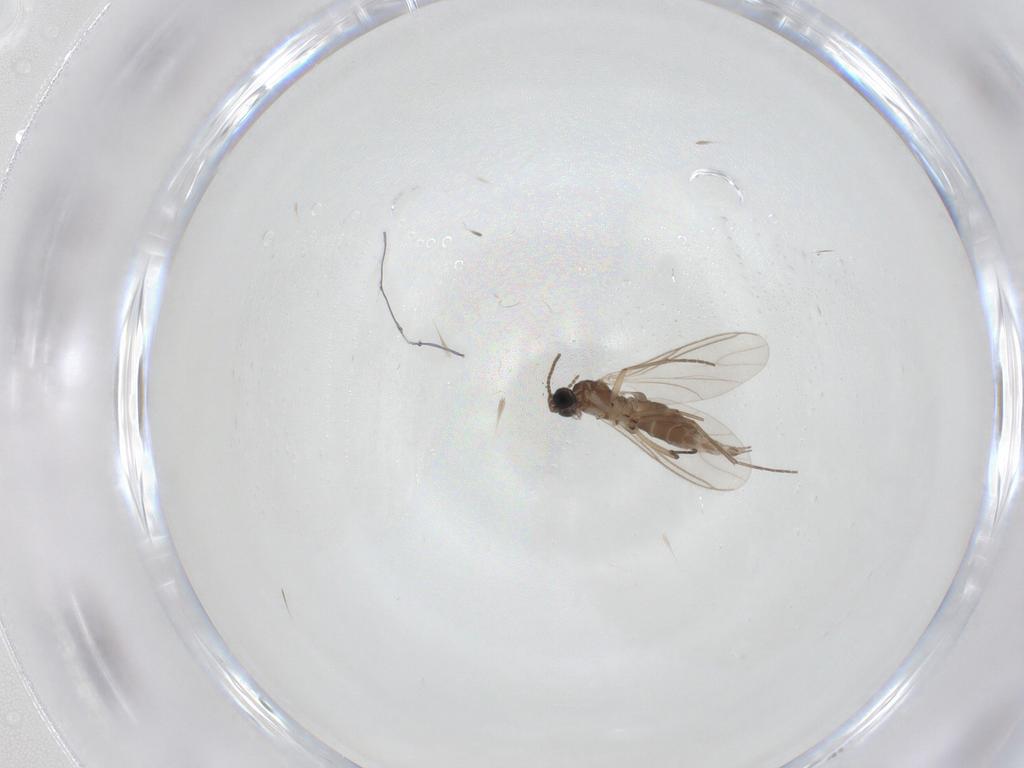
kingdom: Animalia
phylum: Arthropoda
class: Insecta
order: Diptera
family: Sciaridae
